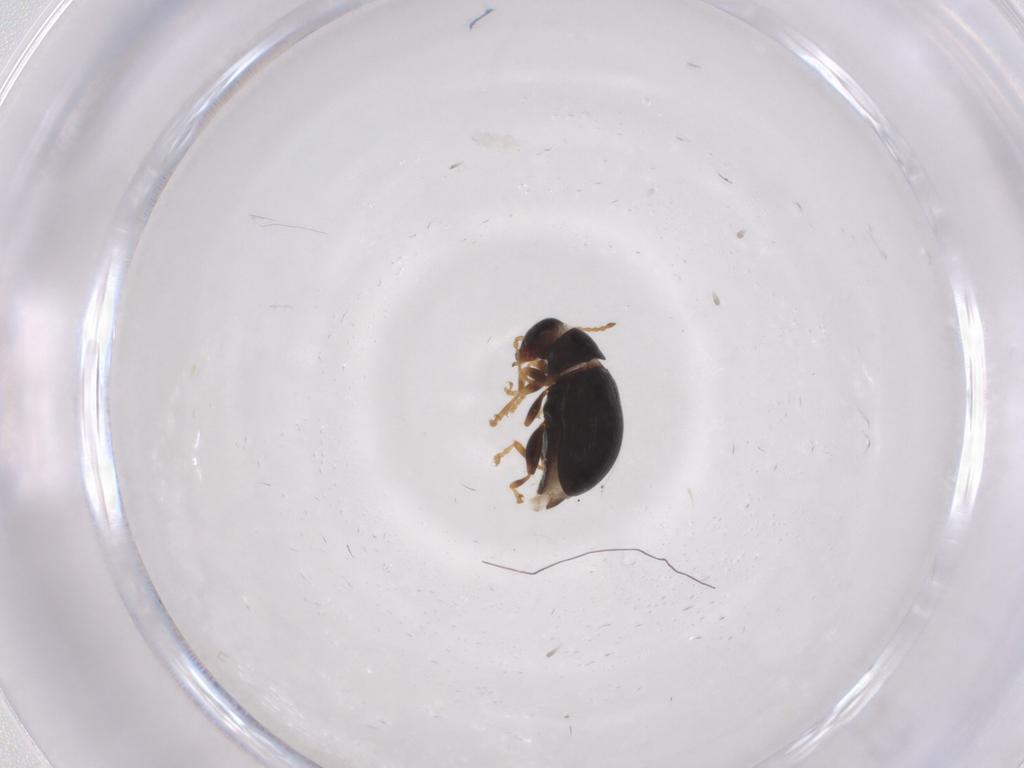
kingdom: Animalia
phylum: Arthropoda
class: Insecta
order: Coleoptera
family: Chrysomelidae
